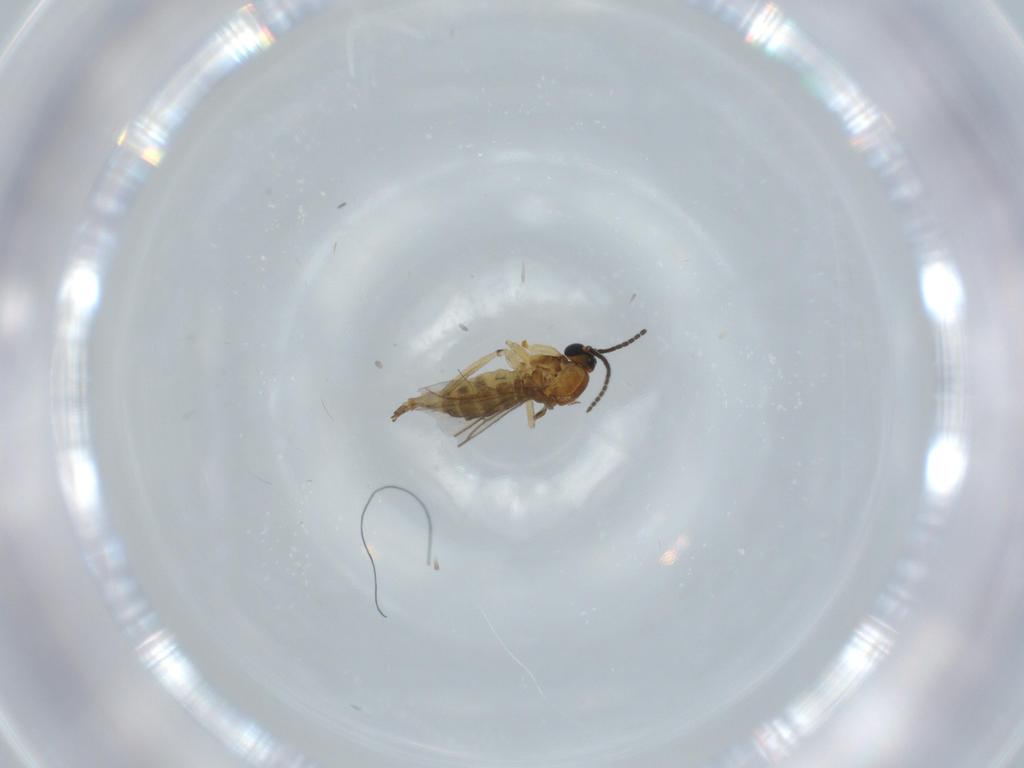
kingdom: Animalia
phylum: Arthropoda
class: Insecta
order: Diptera
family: Sciaridae
